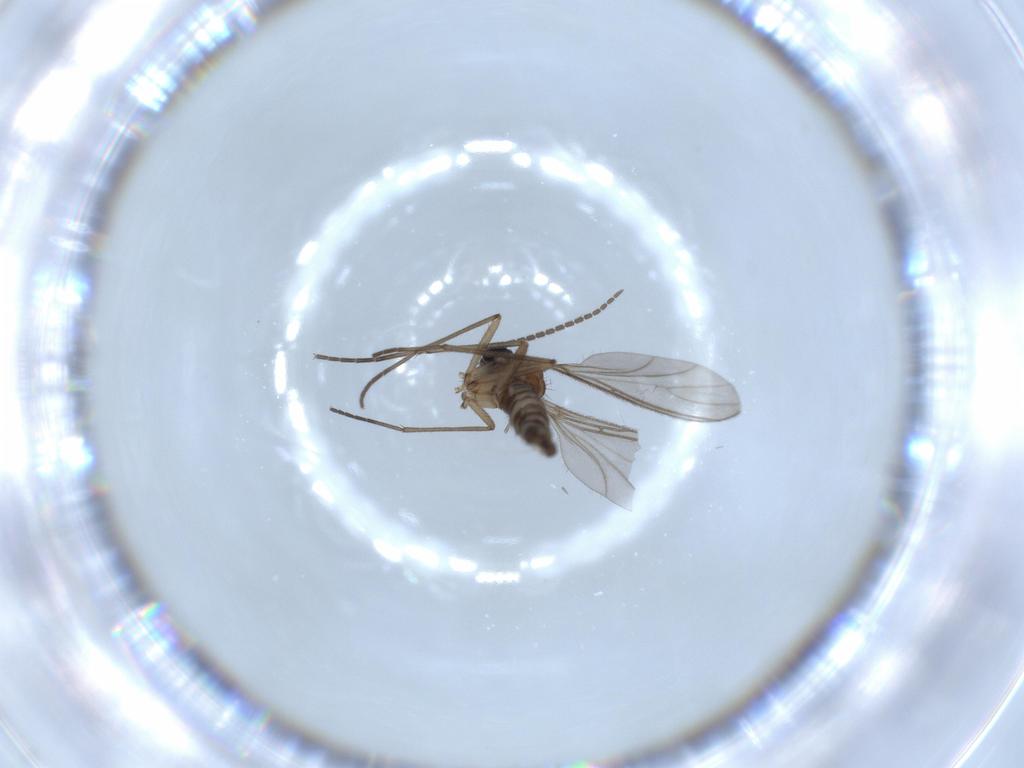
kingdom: Animalia
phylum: Arthropoda
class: Insecta
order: Diptera
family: Sciaridae
